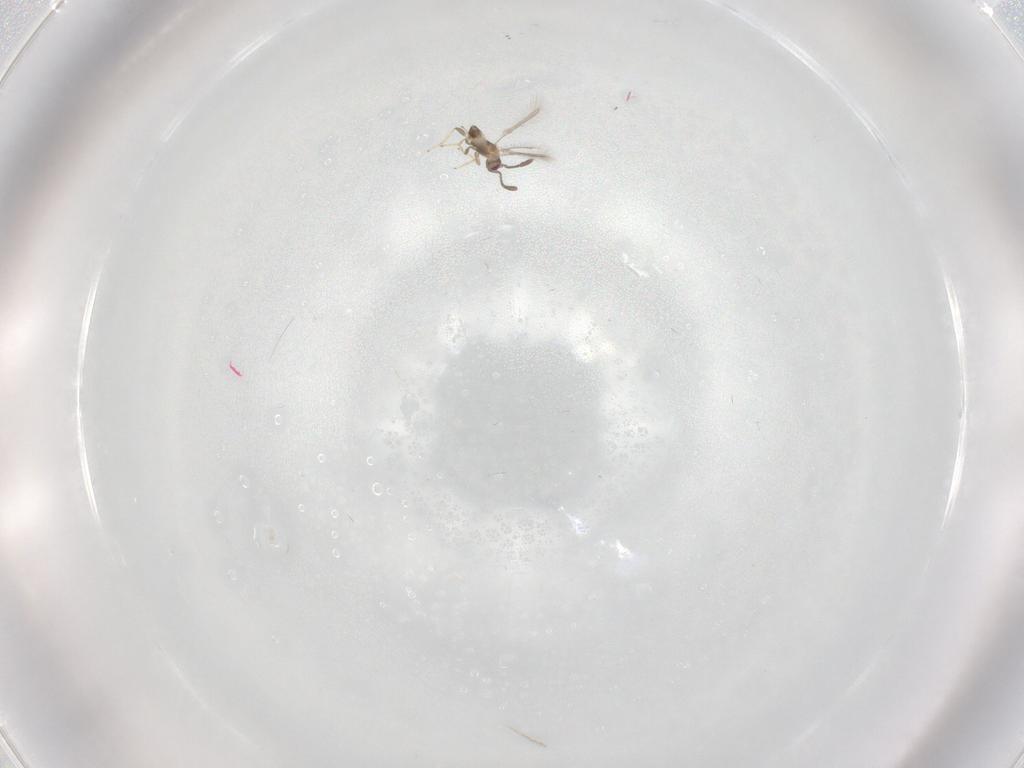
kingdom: Animalia
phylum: Arthropoda
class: Insecta
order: Hymenoptera
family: Mymaridae
